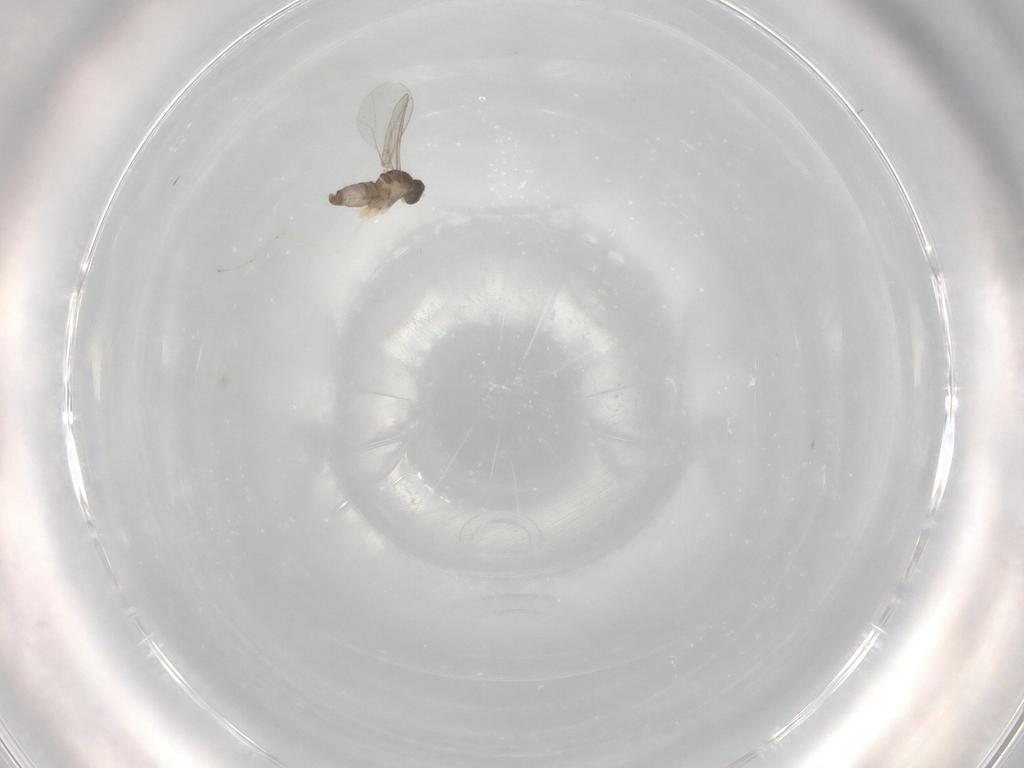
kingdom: Animalia
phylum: Arthropoda
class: Insecta
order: Diptera
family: Cecidomyiidae
